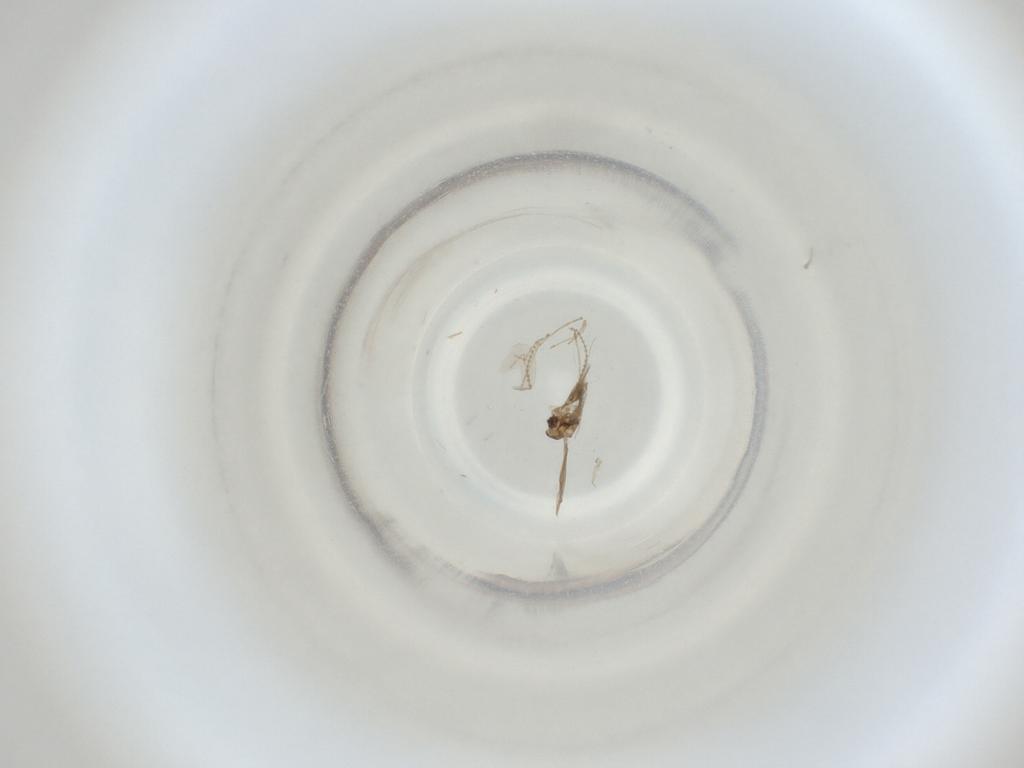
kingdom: Animalia
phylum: Arthropoda
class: Insecta
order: Diptera
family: Cecidomyiidae
